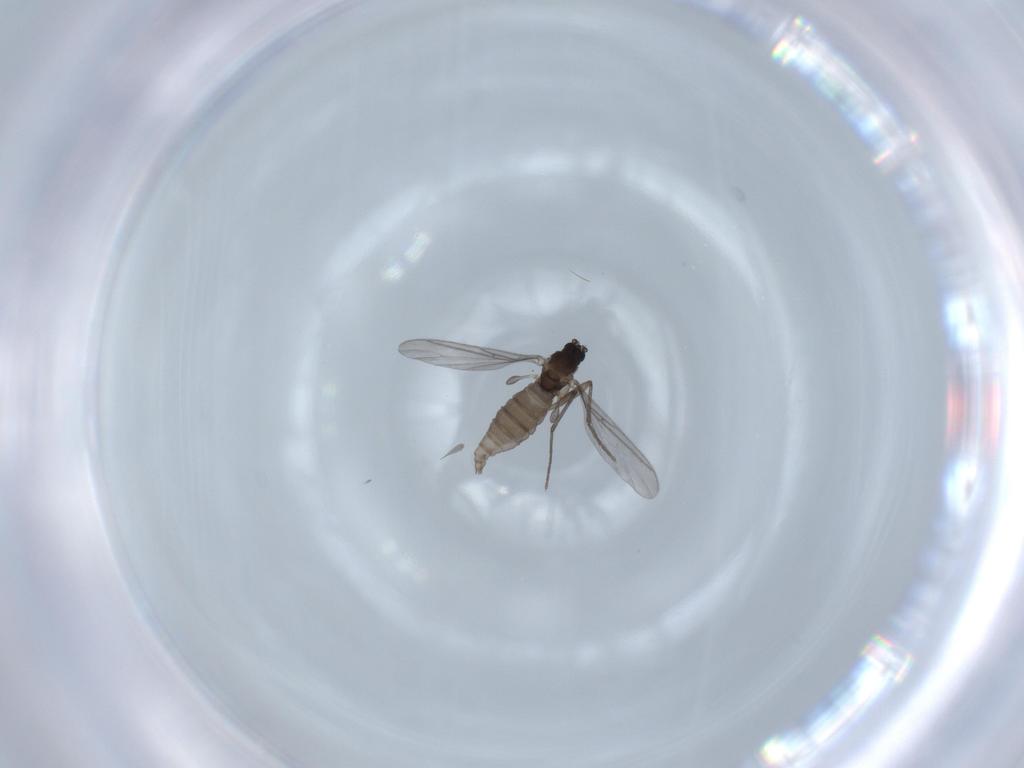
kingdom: Animalia
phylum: Arthropoda
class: Insecta
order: Diptera
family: Sciaridae
